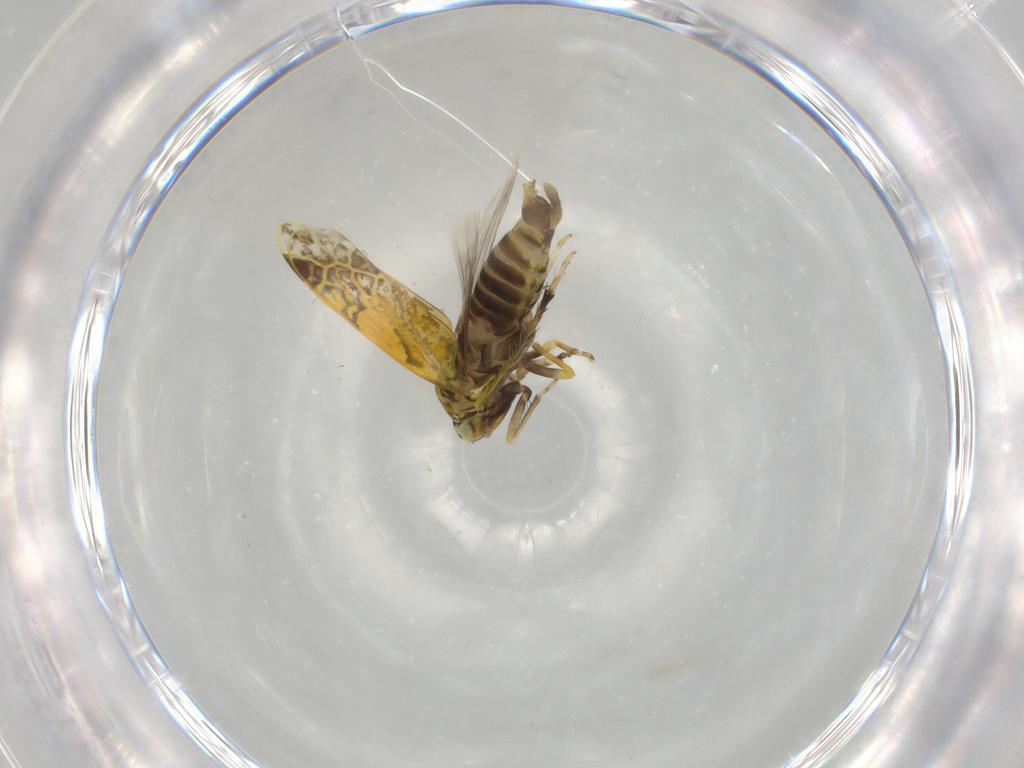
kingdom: Animalia
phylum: Arthropoda
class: Insecta
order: Hemiptera
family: Cicadellidae
